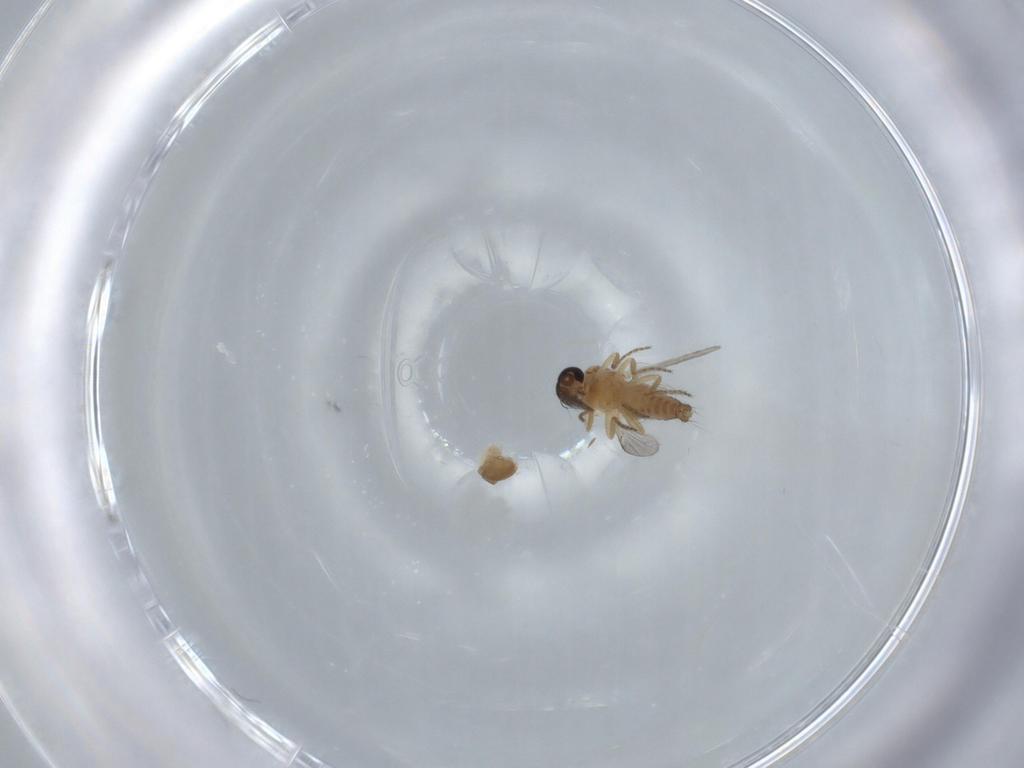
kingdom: Animalia
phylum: Arthropoda
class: Insecta
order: Diptera
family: Ceratopogonidae
